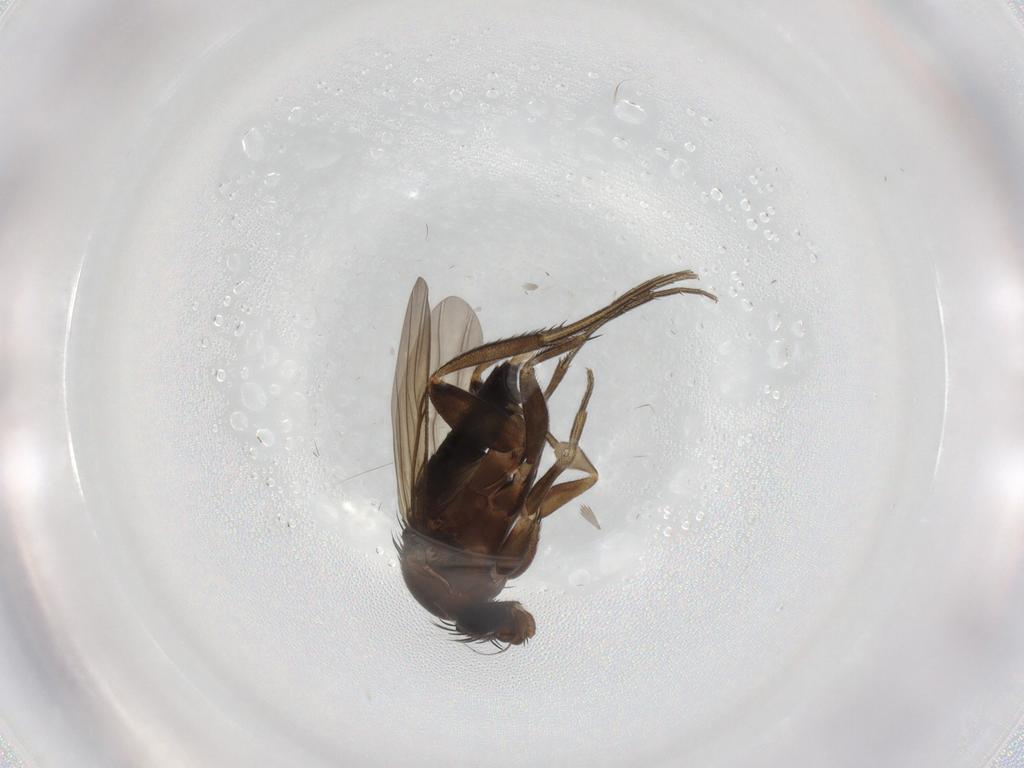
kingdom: Animalia
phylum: Arthropoda
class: Insecta
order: Diptera
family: Phoridae
